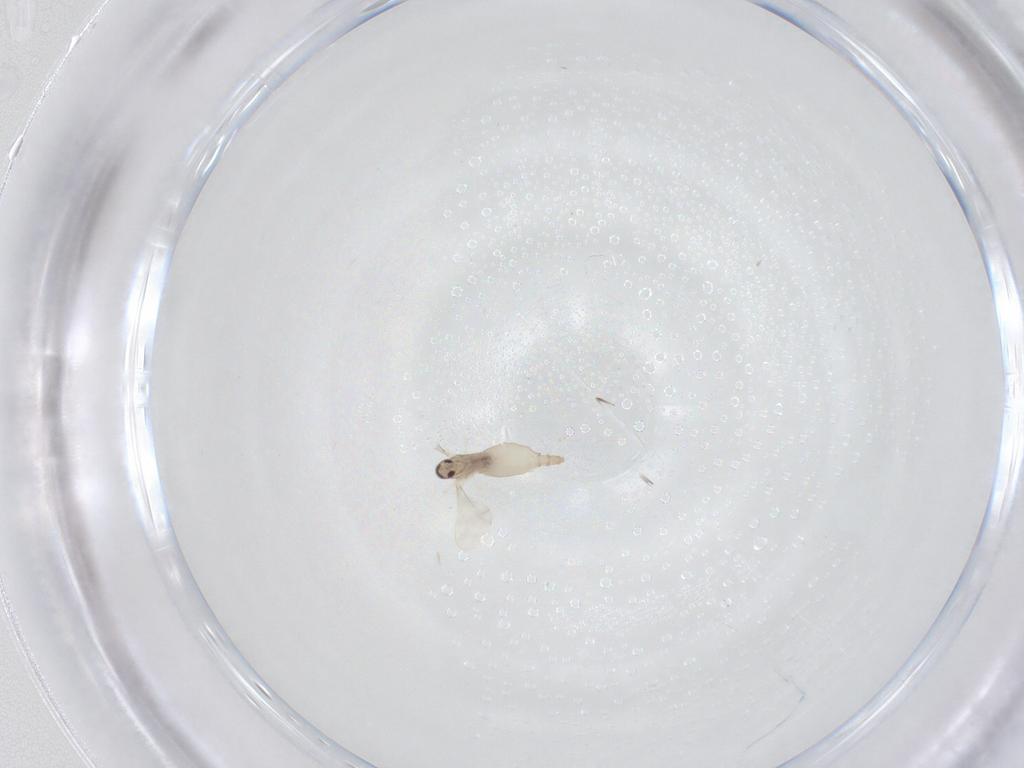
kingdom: Animalia
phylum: Arthropoda
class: Insecta
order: Diptera
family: Cecidomyiidae
